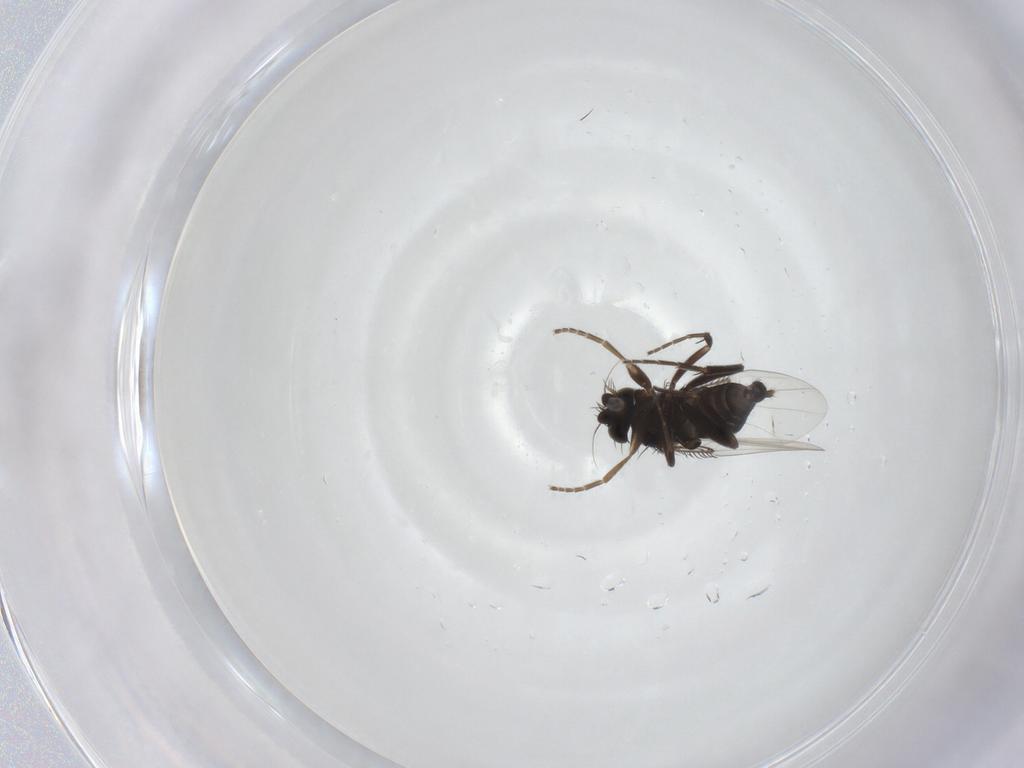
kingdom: Animalia
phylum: Arthropoda
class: Insecta
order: Diptera
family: Phoridae
